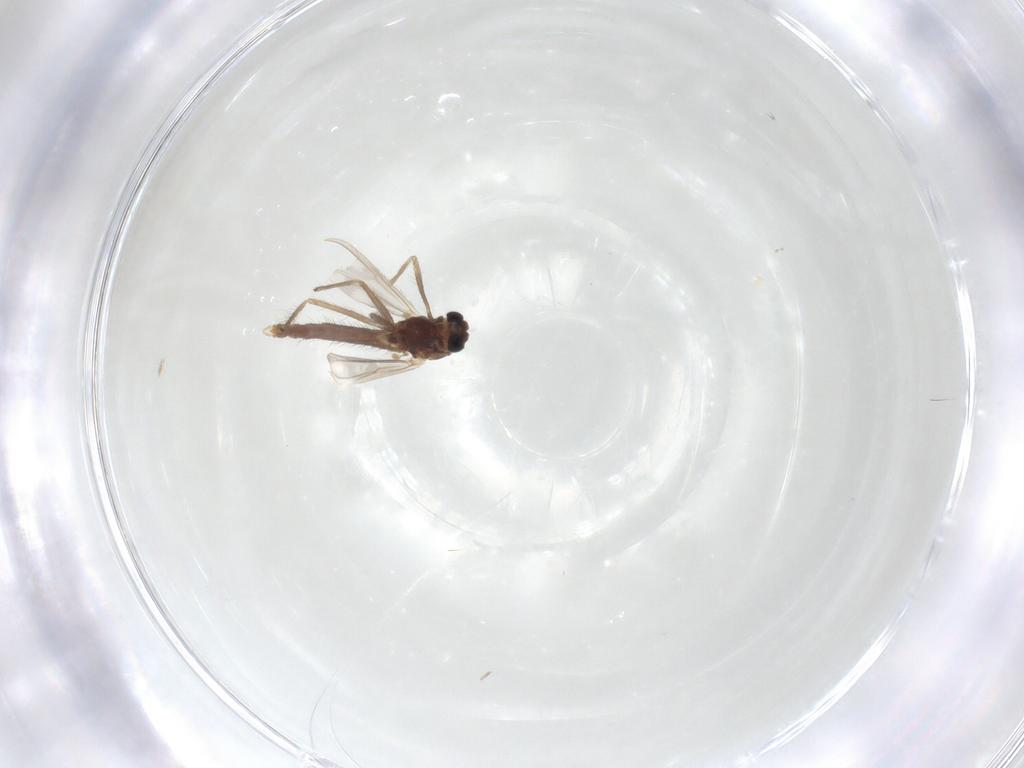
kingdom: Animalia
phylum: Arthropoda
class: Insecta
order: Diptera
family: Chironomidae
